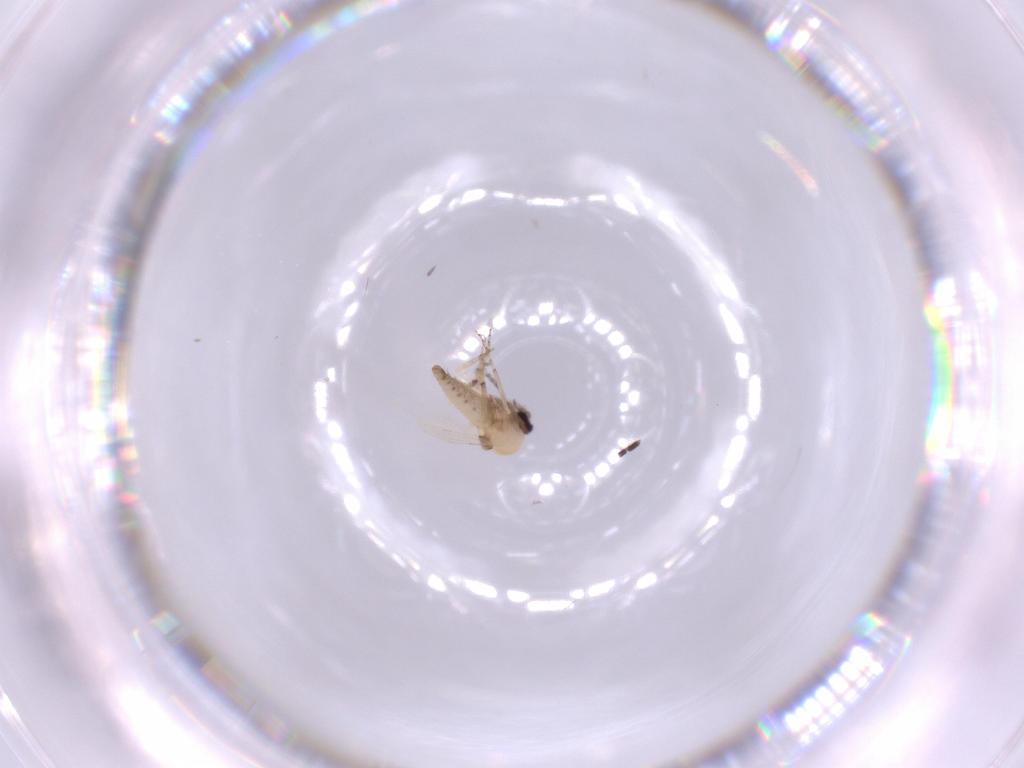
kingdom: Animalia
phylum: Arthropoda
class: Insecta
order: Diptera
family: Ceratopogonidae
